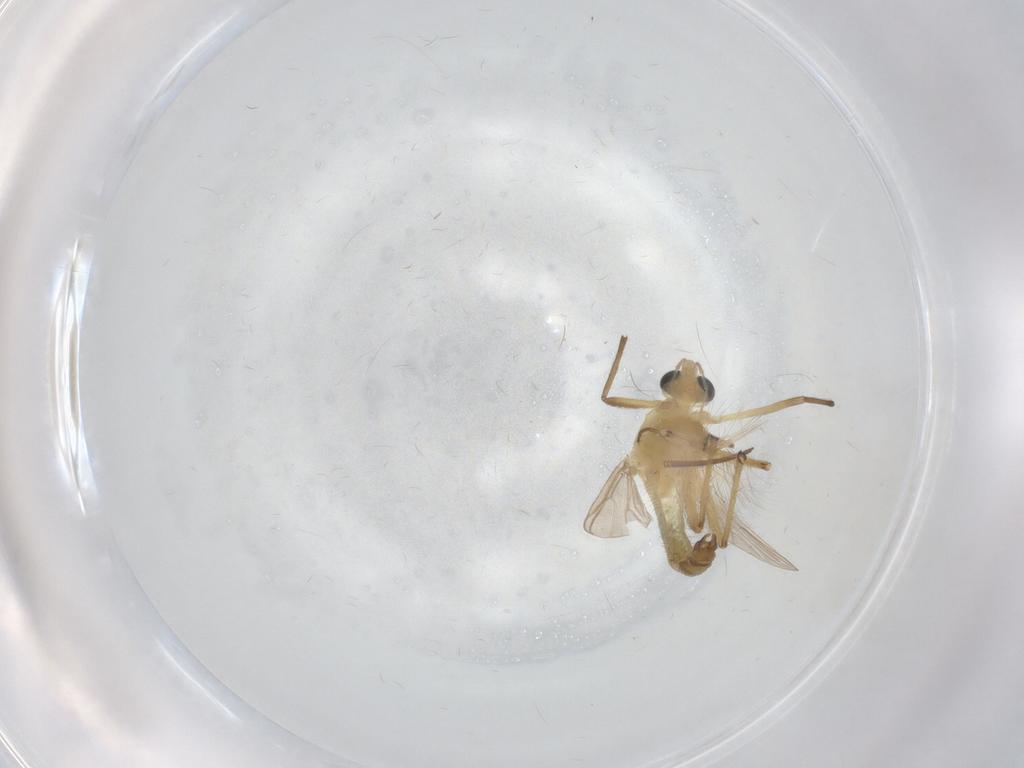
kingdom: Animalia
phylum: Arthropoda
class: Insecta
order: Diptera
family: Chironomidae
